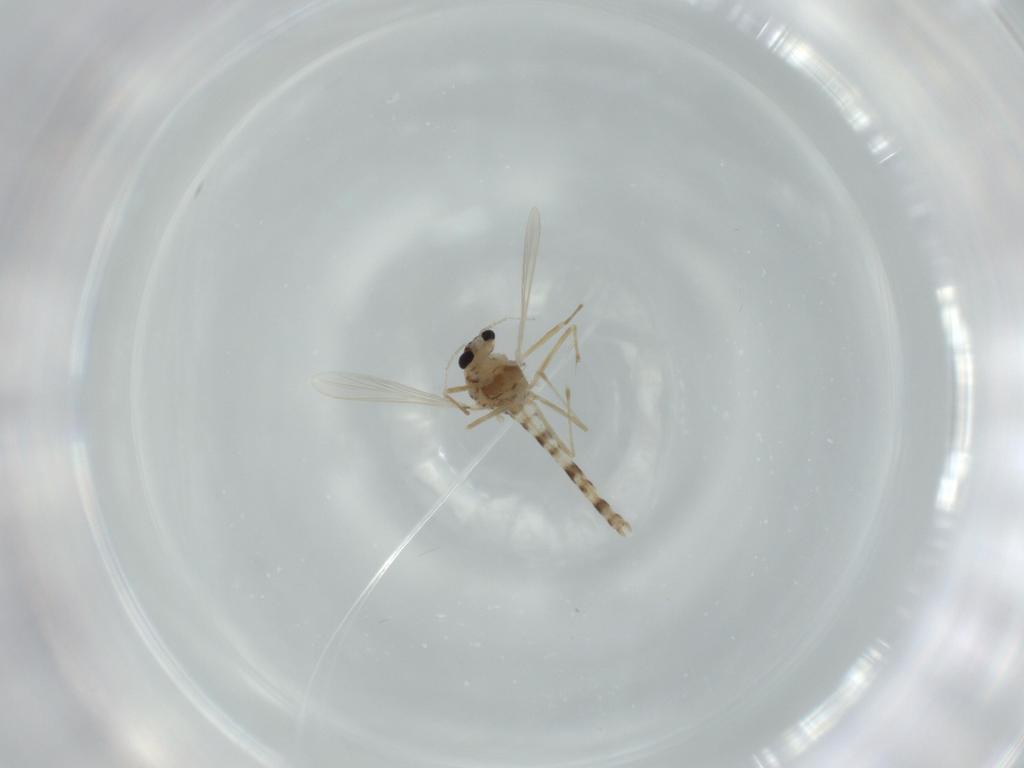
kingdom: Animalia
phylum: Arthropoda
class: Insecta
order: Diptera
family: Chironomidae
